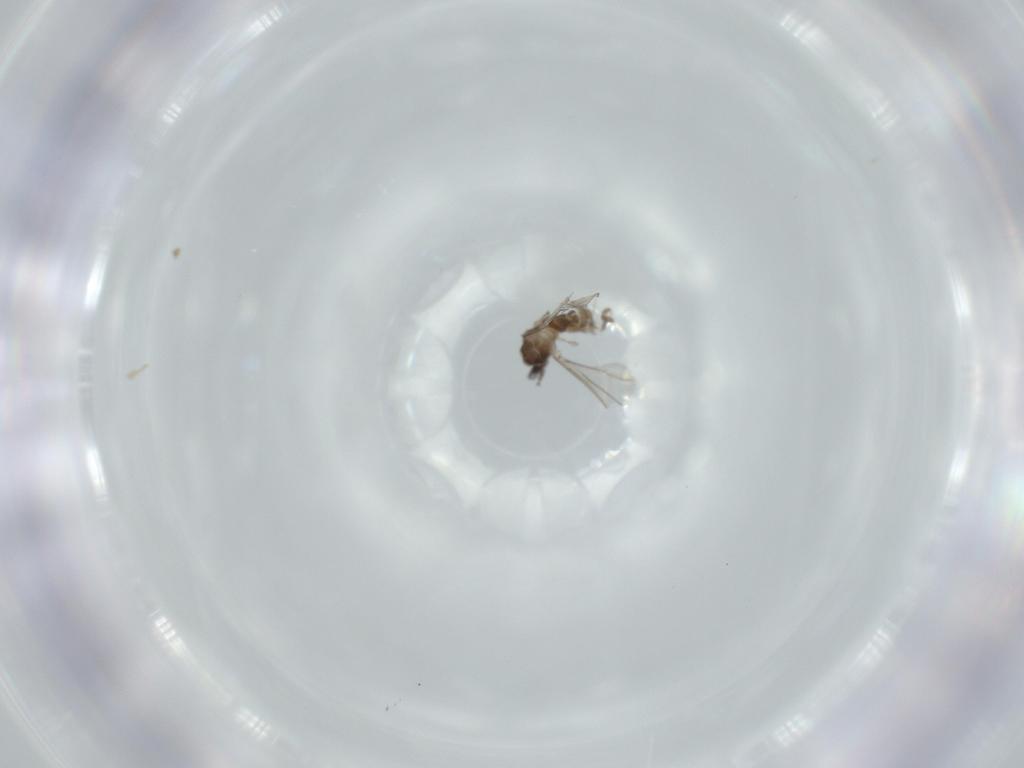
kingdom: Animalia
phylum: Arthropoda
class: Insecta
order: Diptera
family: Cecidomyiidae
